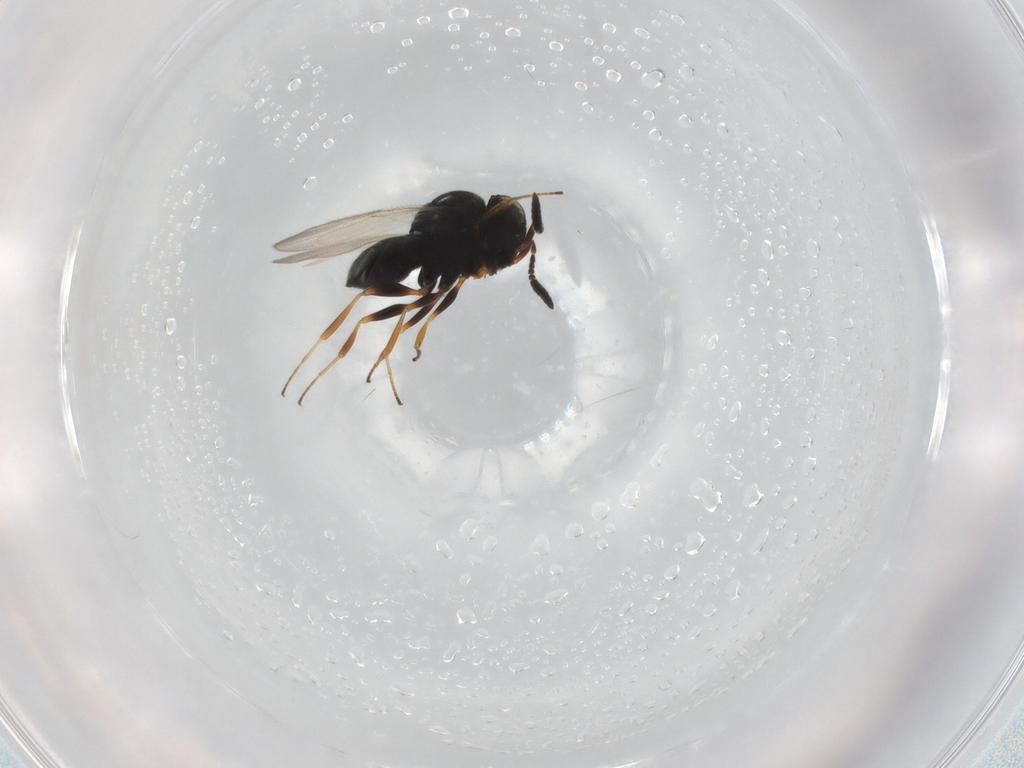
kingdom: Animalia
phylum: Arthropoda
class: Insecta
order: Hymenoptera
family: Scelionidae
